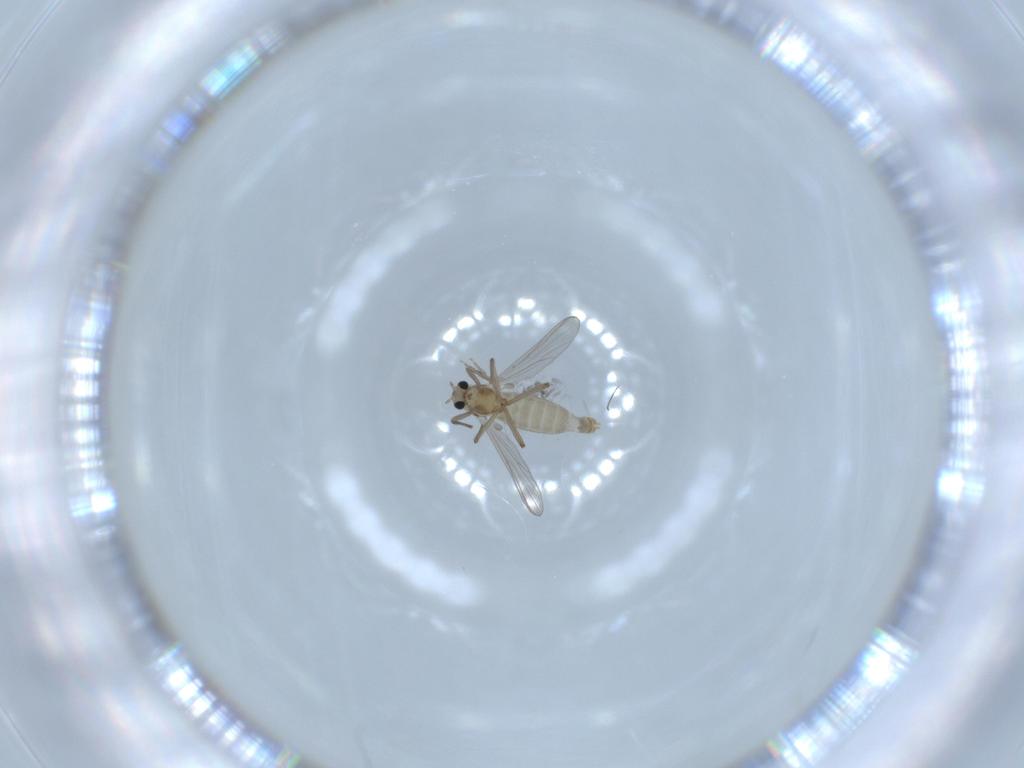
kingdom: Animalia
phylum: Arthropoda
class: Insecta
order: Diptera
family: Chironomidae
